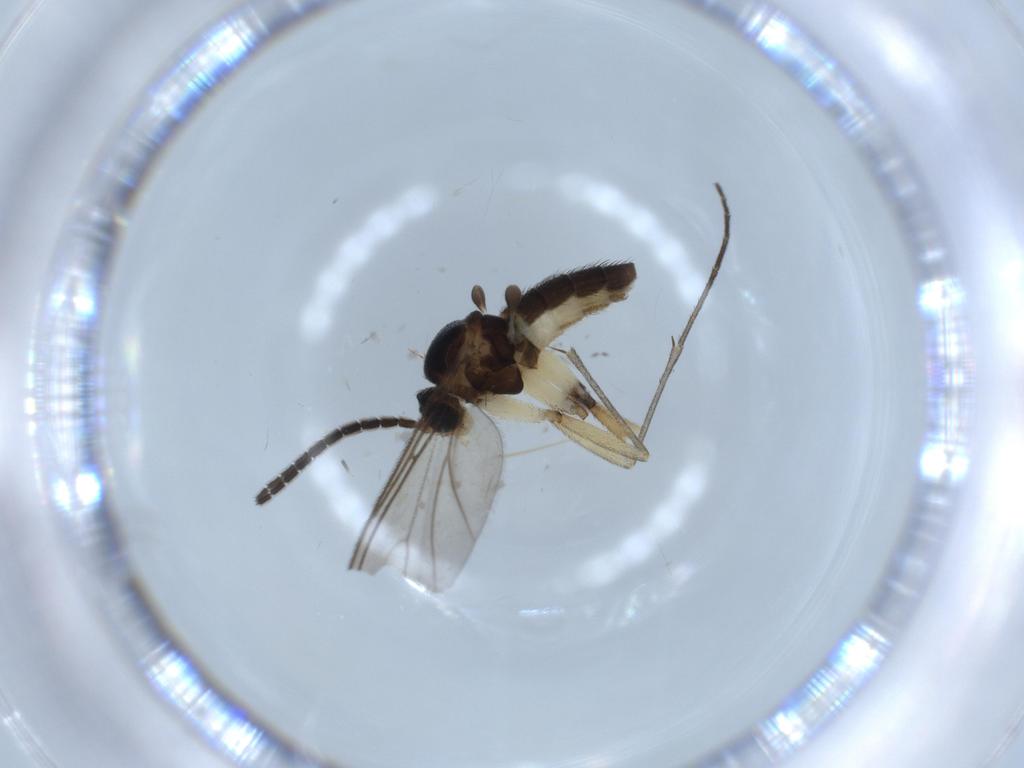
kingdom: Animalia
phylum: Arthropoda
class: Insecta
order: Diptera
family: Sciaridae
